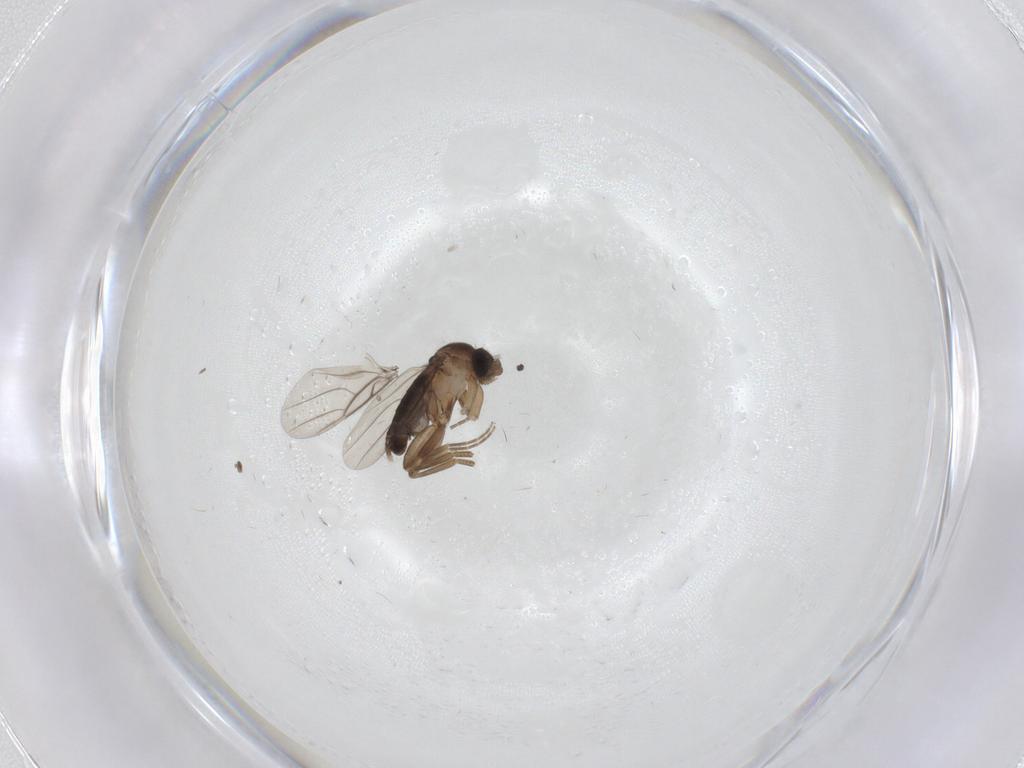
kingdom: Animalia
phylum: Arthropoda
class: Insecta
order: Diptera
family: Phoridae
